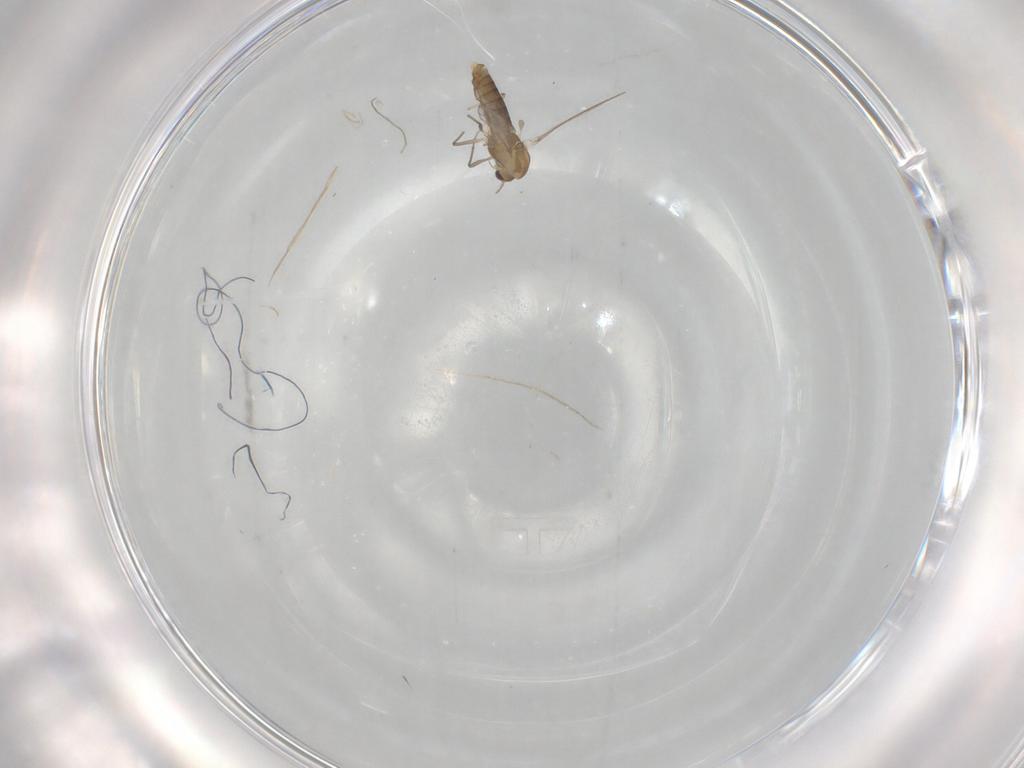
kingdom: Animalia
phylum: Arthropoda
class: Insecta
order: Diptera
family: Chironomidae
